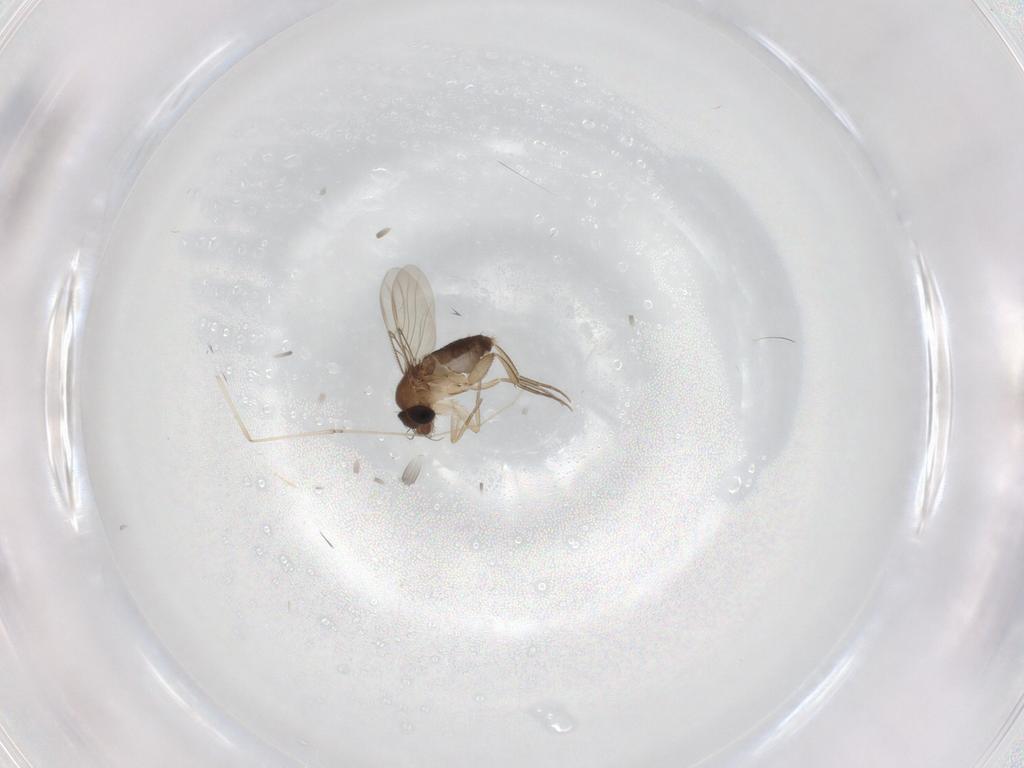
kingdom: Animalia
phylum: Arthropoda
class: Insecta
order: Diptera
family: Phoridae
